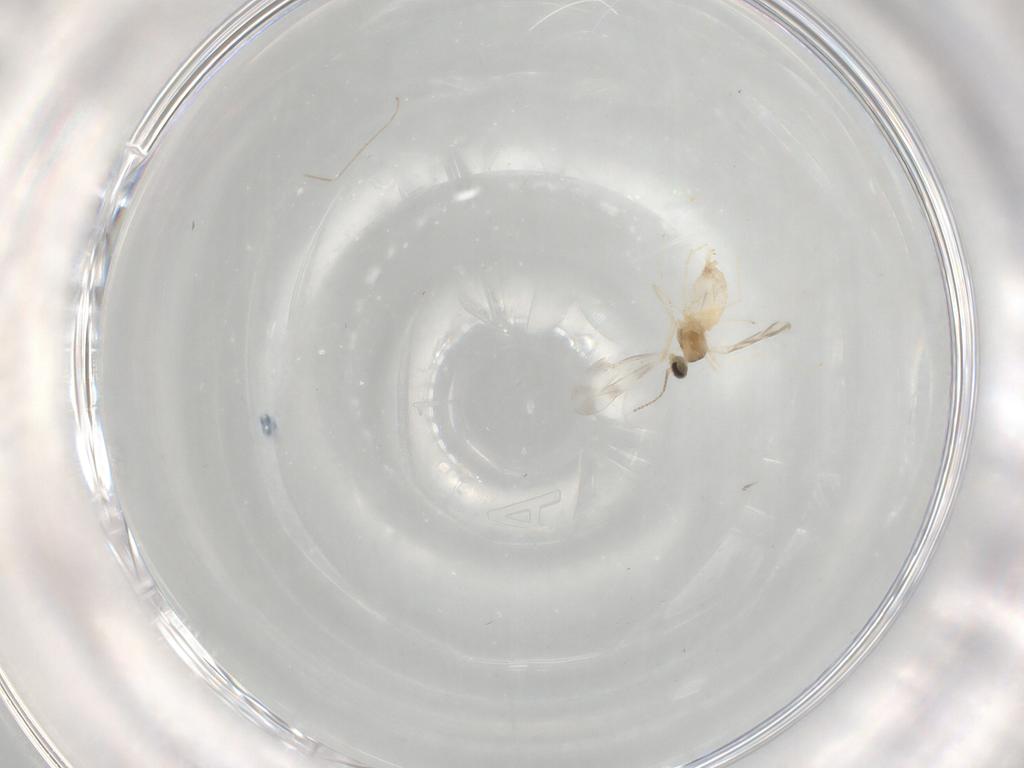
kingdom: Animalia
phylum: Arthropoda
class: Insecta
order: Diptera
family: Cecidomyiidae
